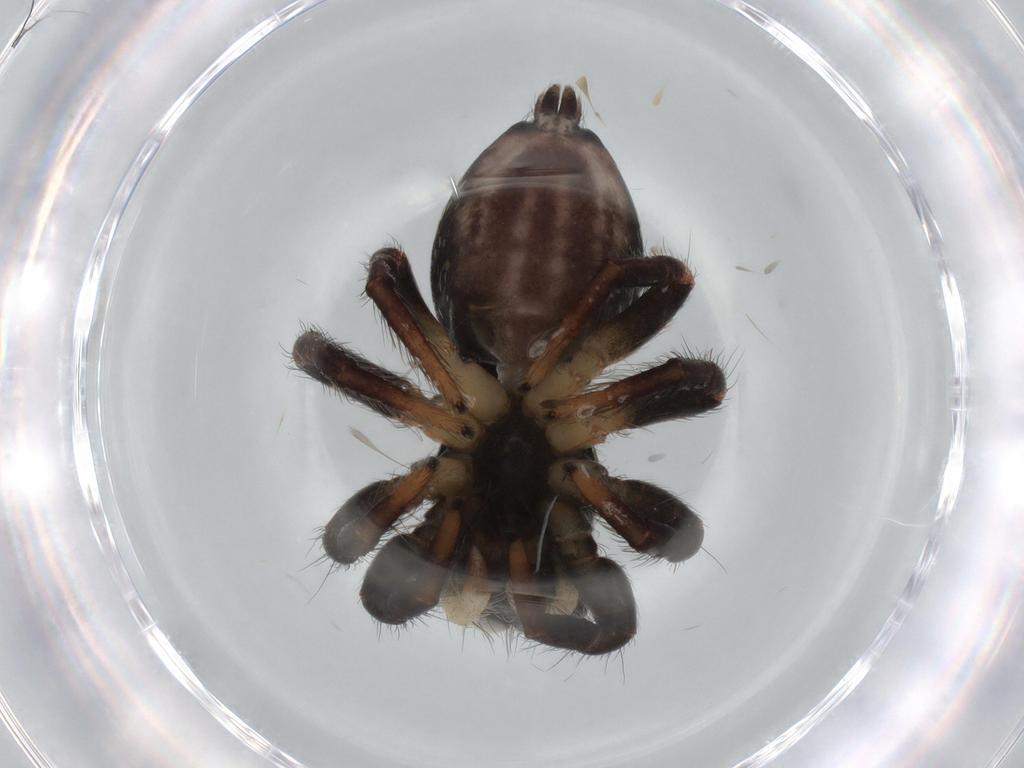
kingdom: Animalia
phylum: Arthropoda
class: Arachnida
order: Araneae
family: Salticidae
